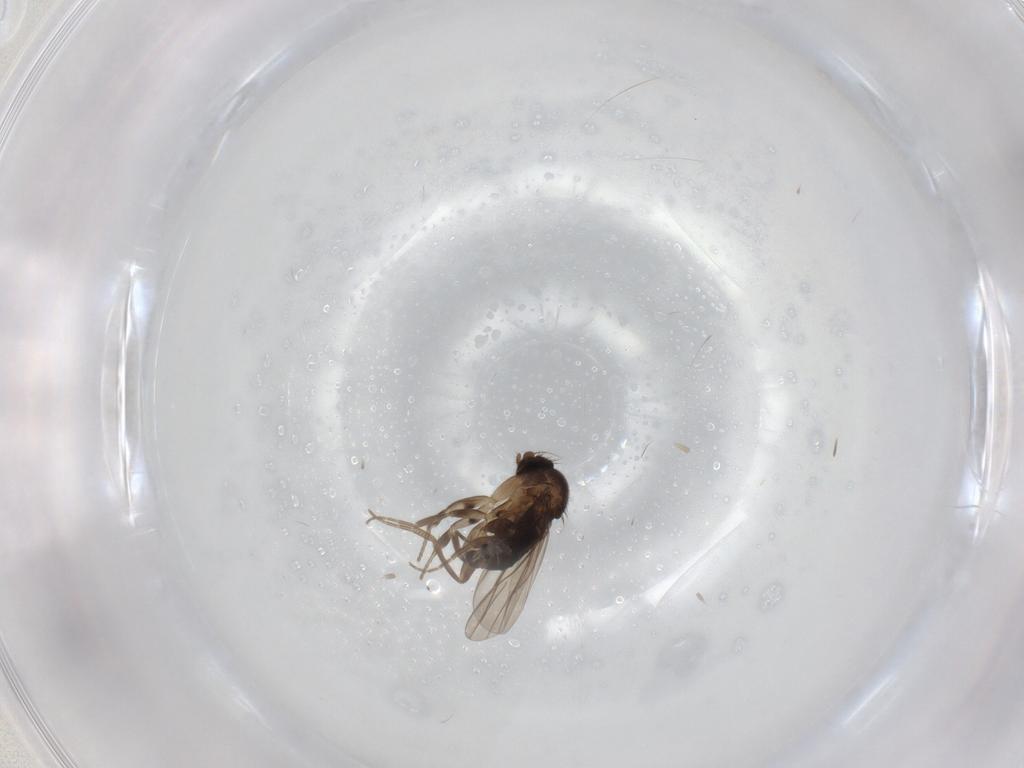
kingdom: Animalia
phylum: Arthropoda
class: Insecta
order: Diptera
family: Phoridae
